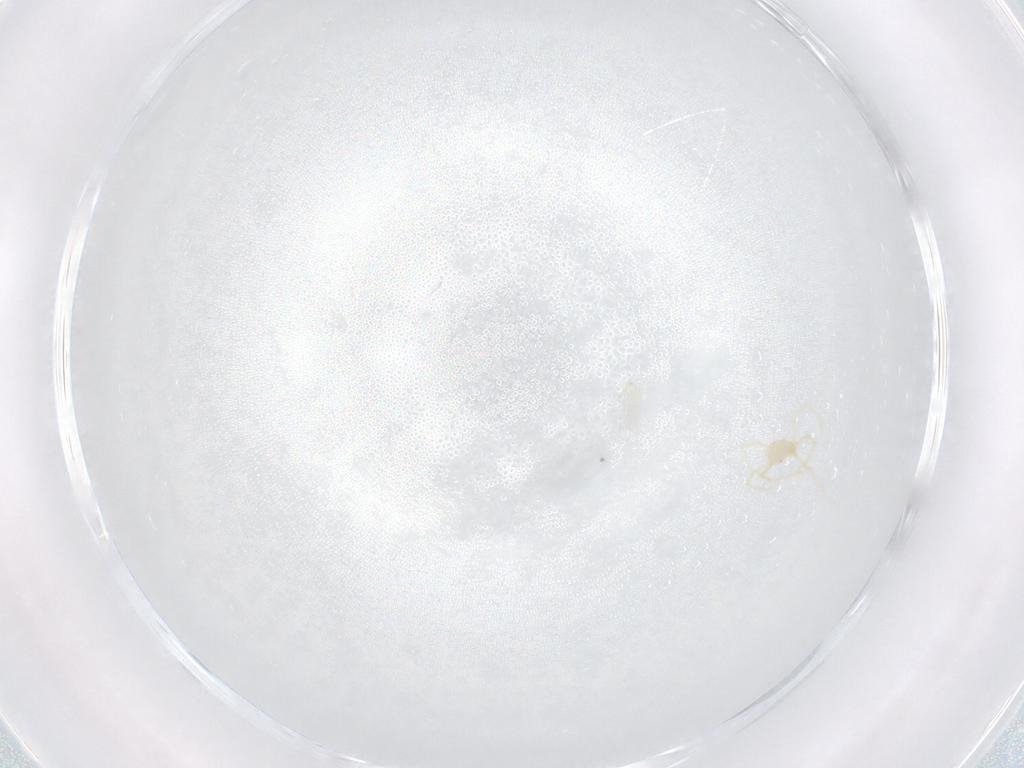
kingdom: Animalia
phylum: Arthropoda
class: Arachnida
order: Trombidiformes
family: Erythraeidae
